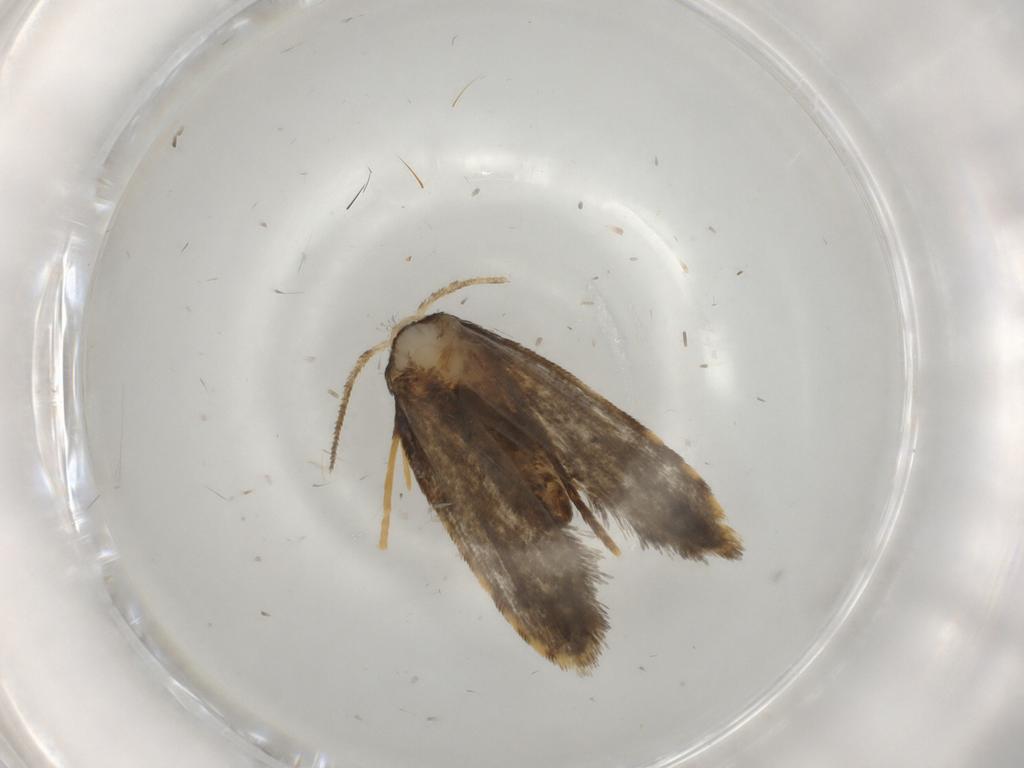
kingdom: Animalia
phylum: Arthropoda
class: Insecta
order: Lepidoptera
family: Psychidae
